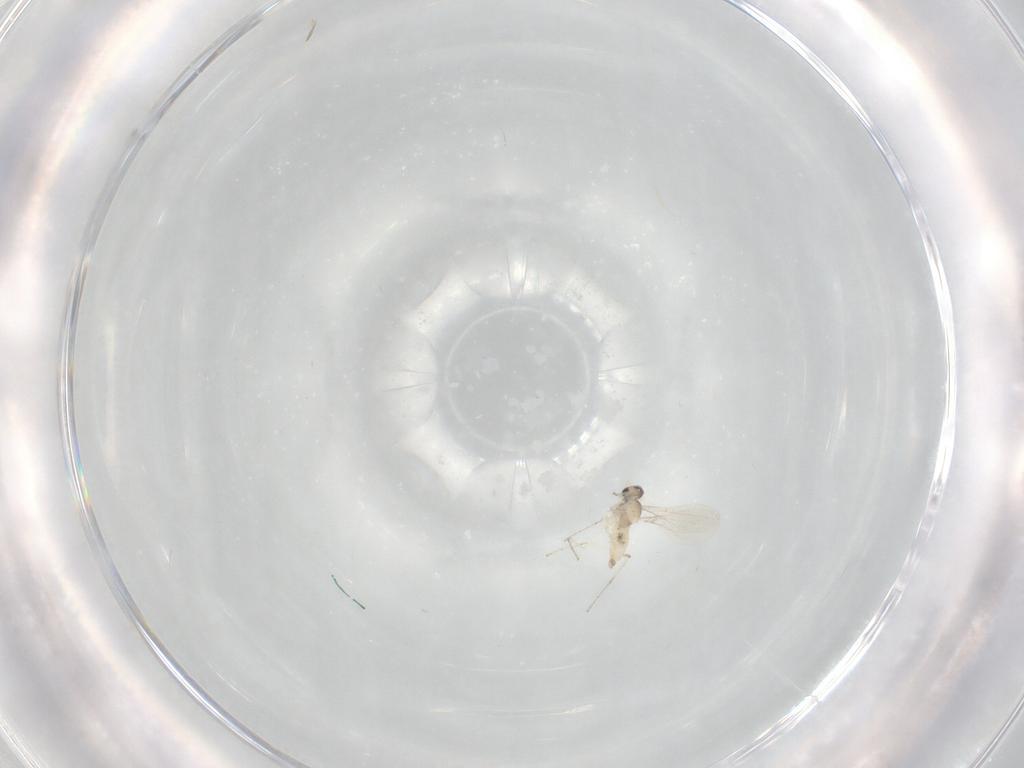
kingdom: Animalia
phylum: Arthropoda
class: Insecta
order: Diptera
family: Cecidomyiidae
